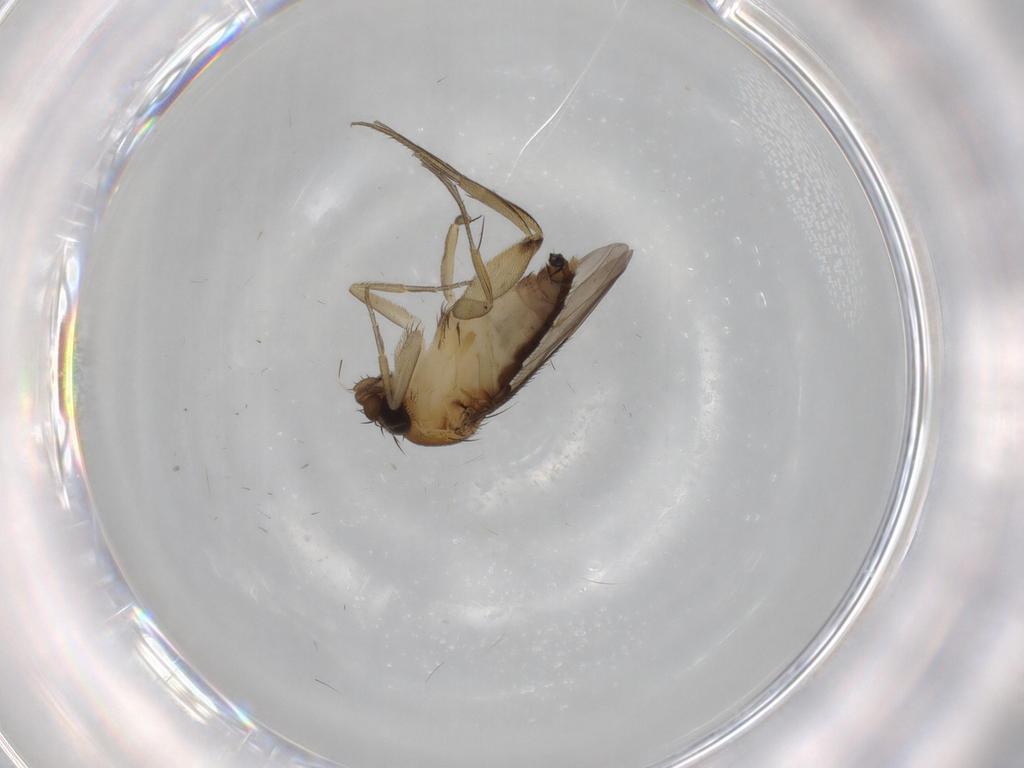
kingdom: Animalia
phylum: Arthropoda
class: Insecta
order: Diptera
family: Phoridae
